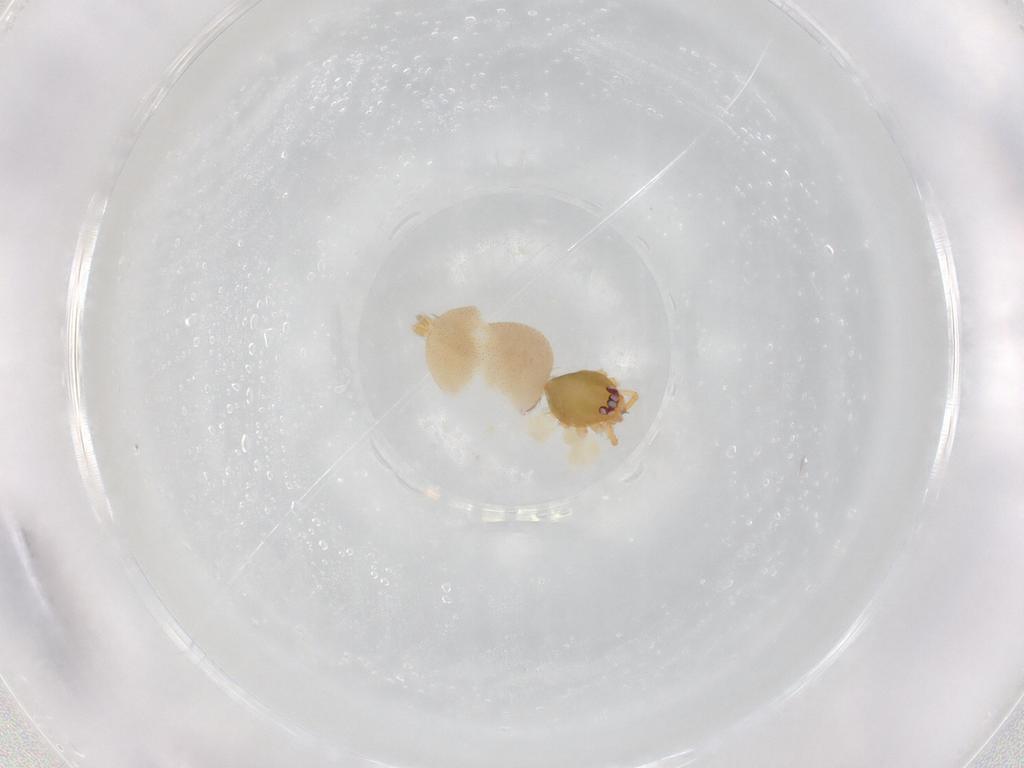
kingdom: Animalia
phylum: Arthropoda
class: Arachnida
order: Araneae
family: Oonopidae
